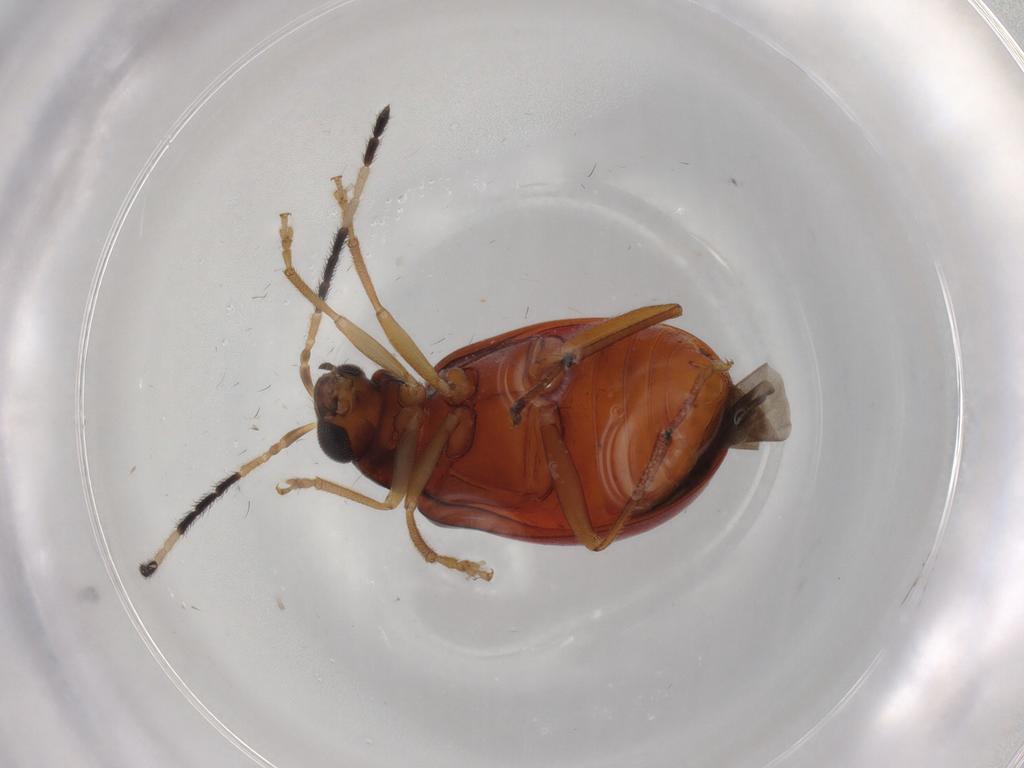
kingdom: Animalia
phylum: Arthropoda
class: Insecta
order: Coleoptera
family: Chrysomelidae
